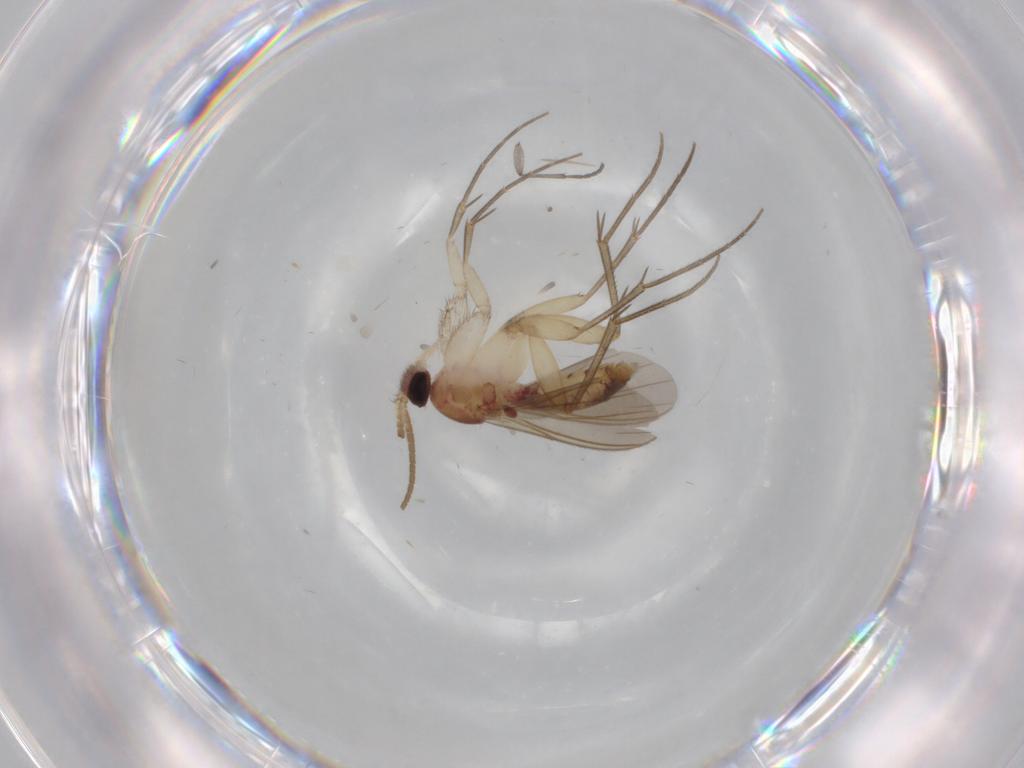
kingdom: Animalia
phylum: Arthropoda
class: Insecta
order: Diptera
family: Mycetophilidae
